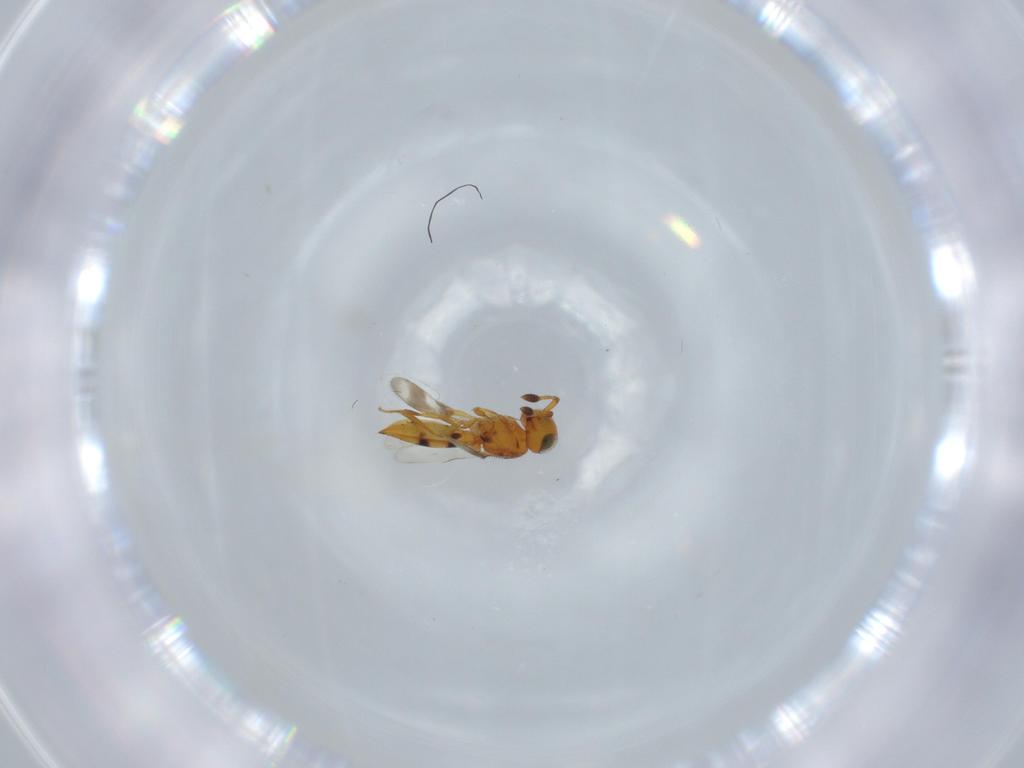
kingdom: Animalia
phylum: Arthropoda
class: Insecta
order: Hymenoptera
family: Scelionidae
